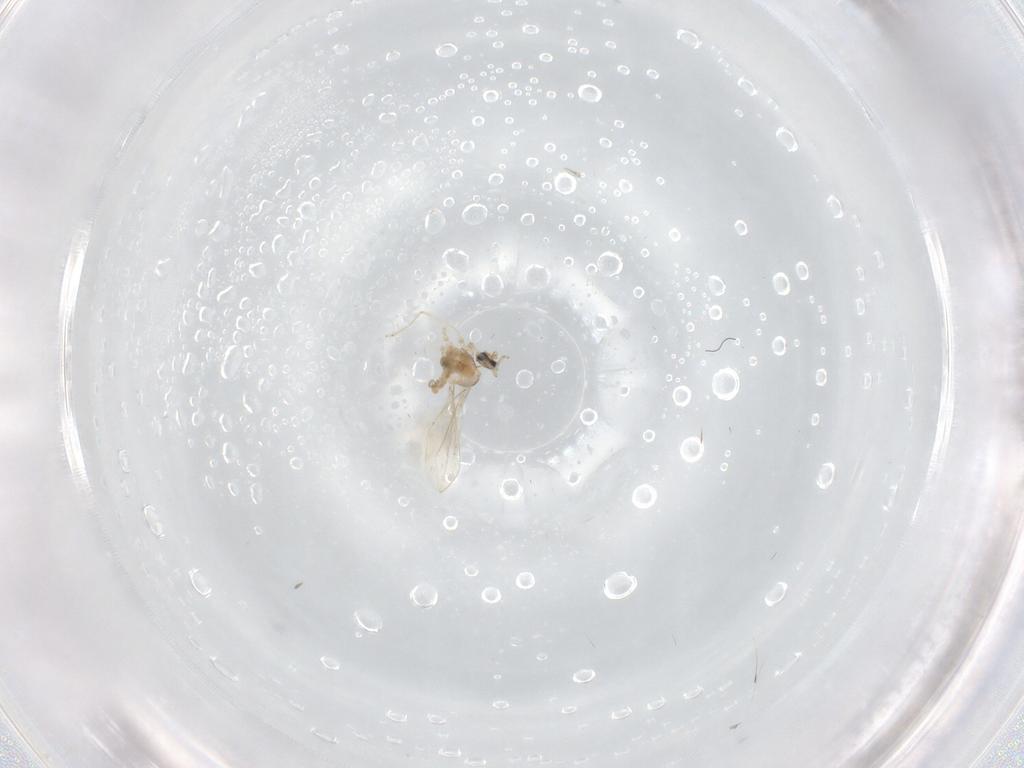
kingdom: Animalia
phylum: Arthropoda
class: Insecta
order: Diptera
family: Cecidomyiidae
